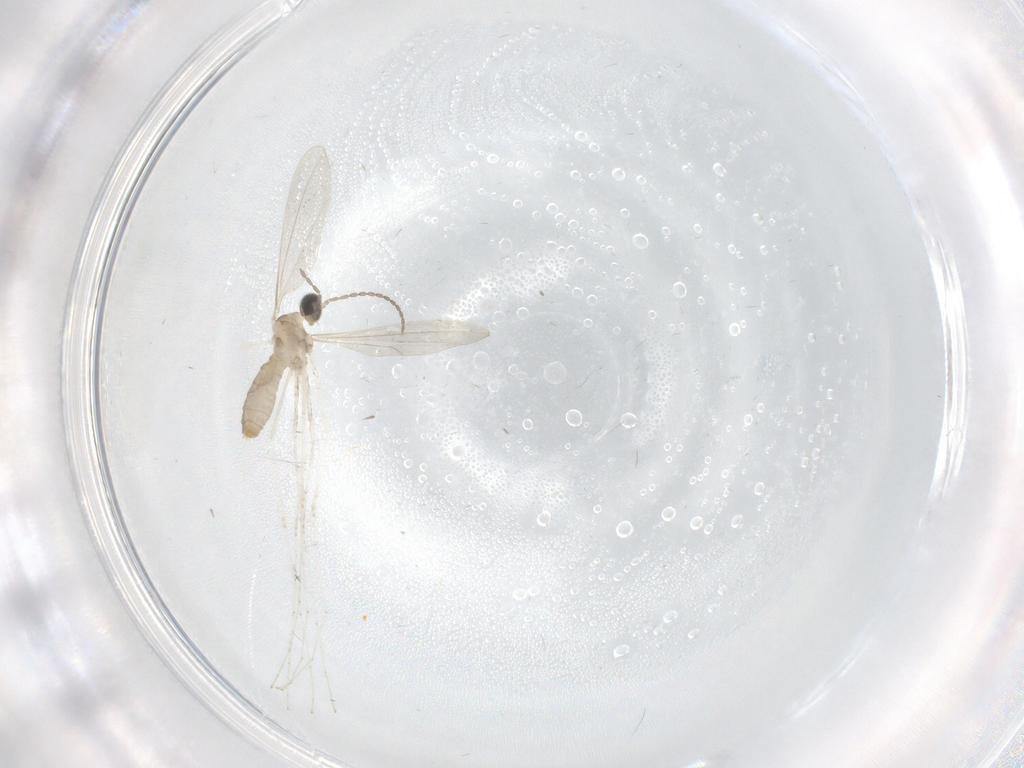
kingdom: Animalia
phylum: Arthropoda
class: Insecta
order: Diptera
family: Cecidomyiidae
